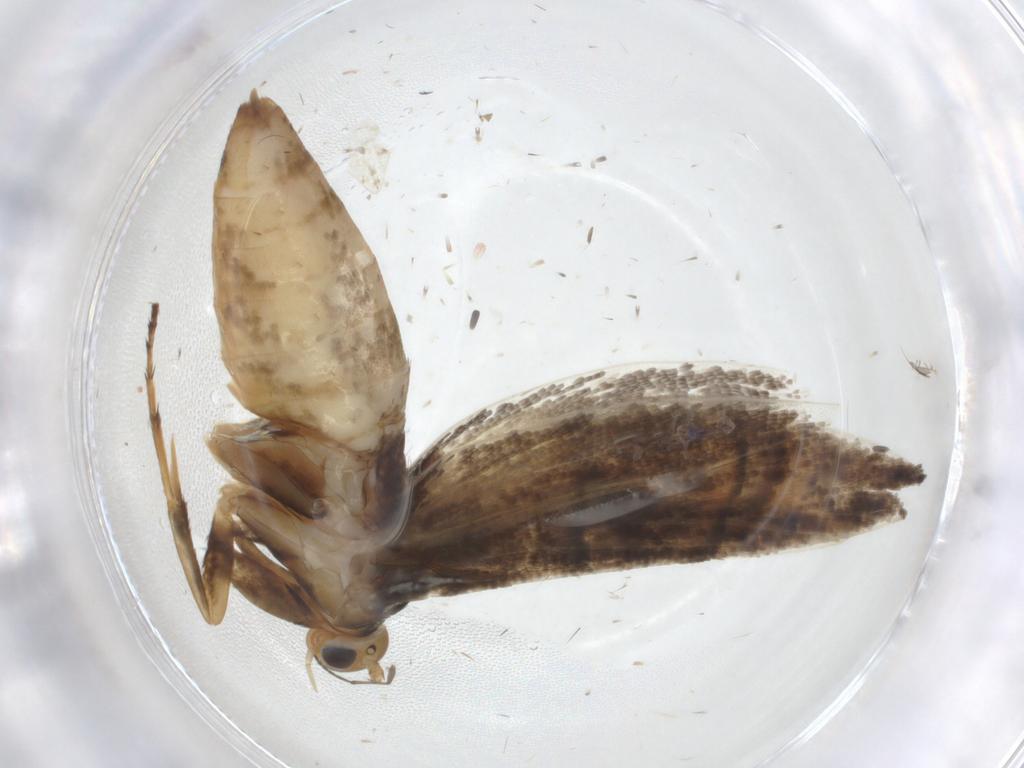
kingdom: Animalia
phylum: Arthropoda
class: Insecta
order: Lepidoptera
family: Crambidae
